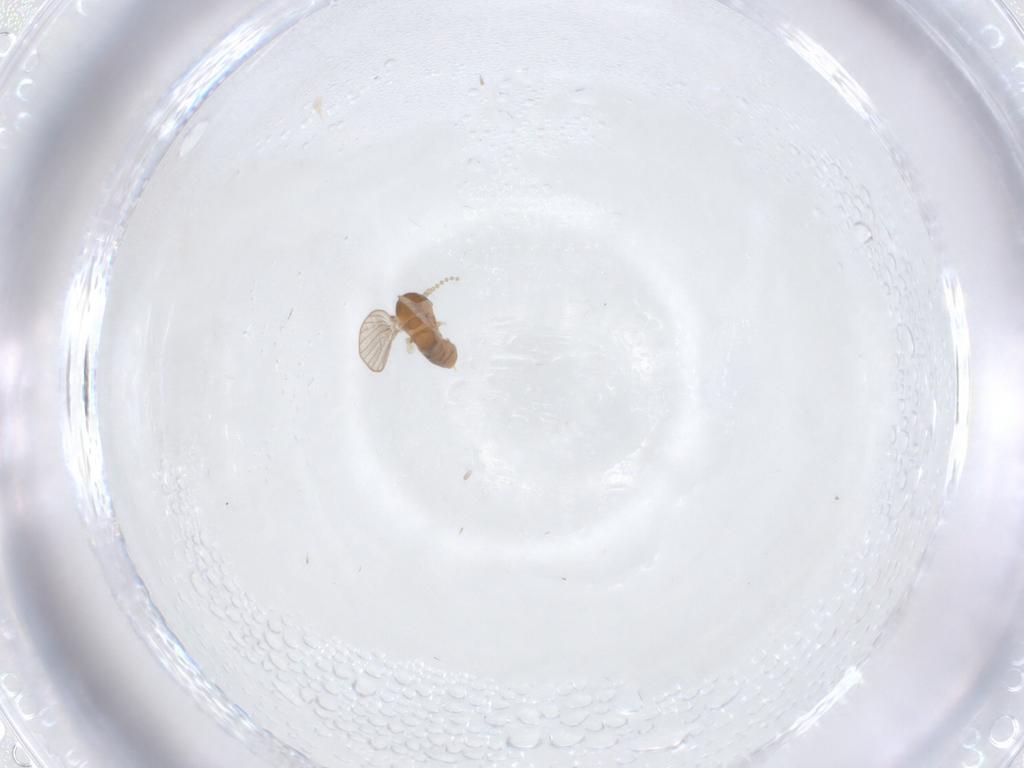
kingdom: Animalia
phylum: Arthropoda
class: Insecta
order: Diptera
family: Psychodidae
